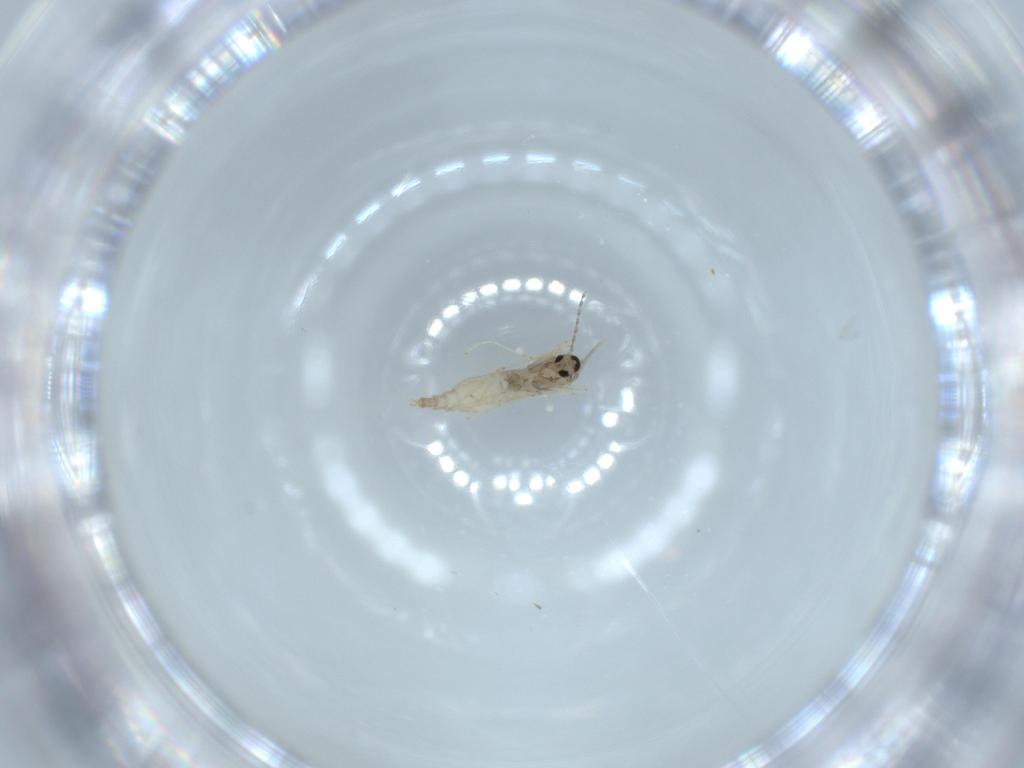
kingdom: Animalia
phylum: Arthropoda
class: Insecta
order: Diptera
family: Cecidomyiidae
